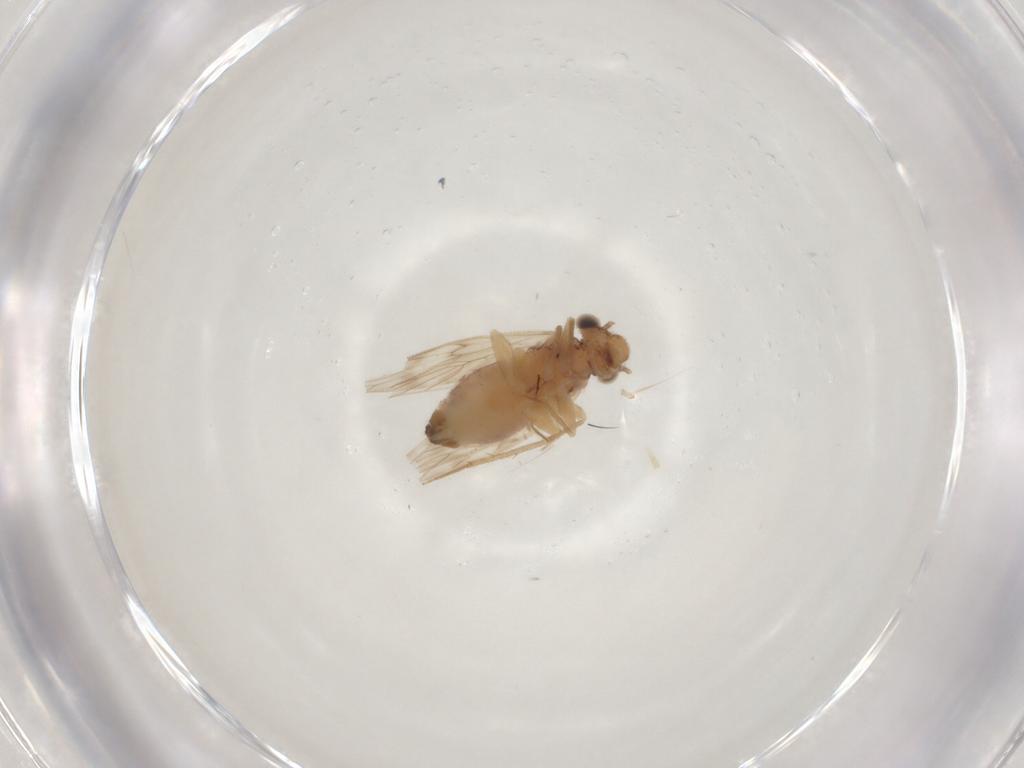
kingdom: Animalia
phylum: Arthropoda
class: Insecta
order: Psocodea
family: Lepidopsocidae
